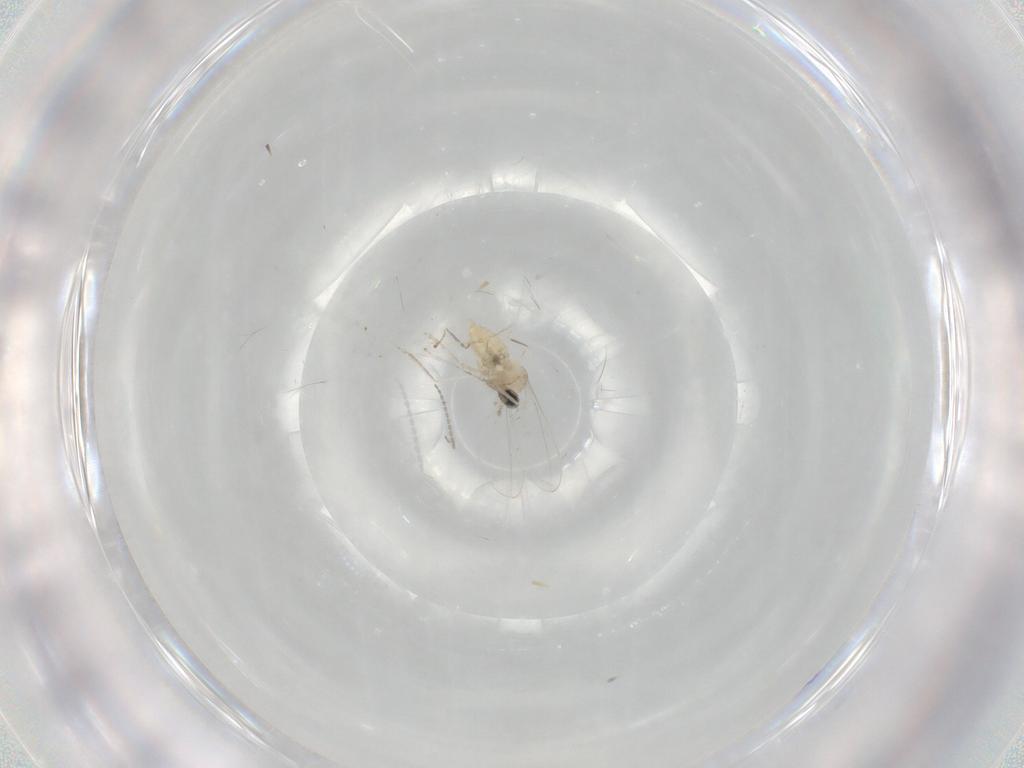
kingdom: Animalia
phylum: Arthropoda
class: Insecta
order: Diptera
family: Cecidomyiidae
